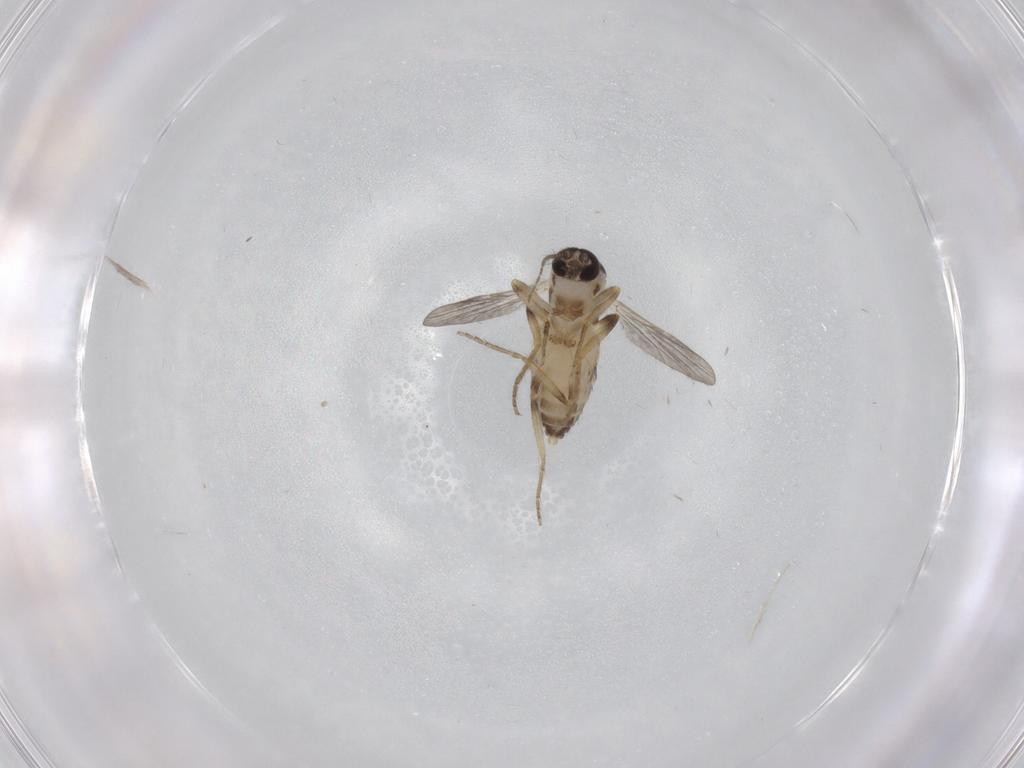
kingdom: Animalia
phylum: Arthropoda
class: Insecta
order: Diptera
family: Ceratopogonidae
